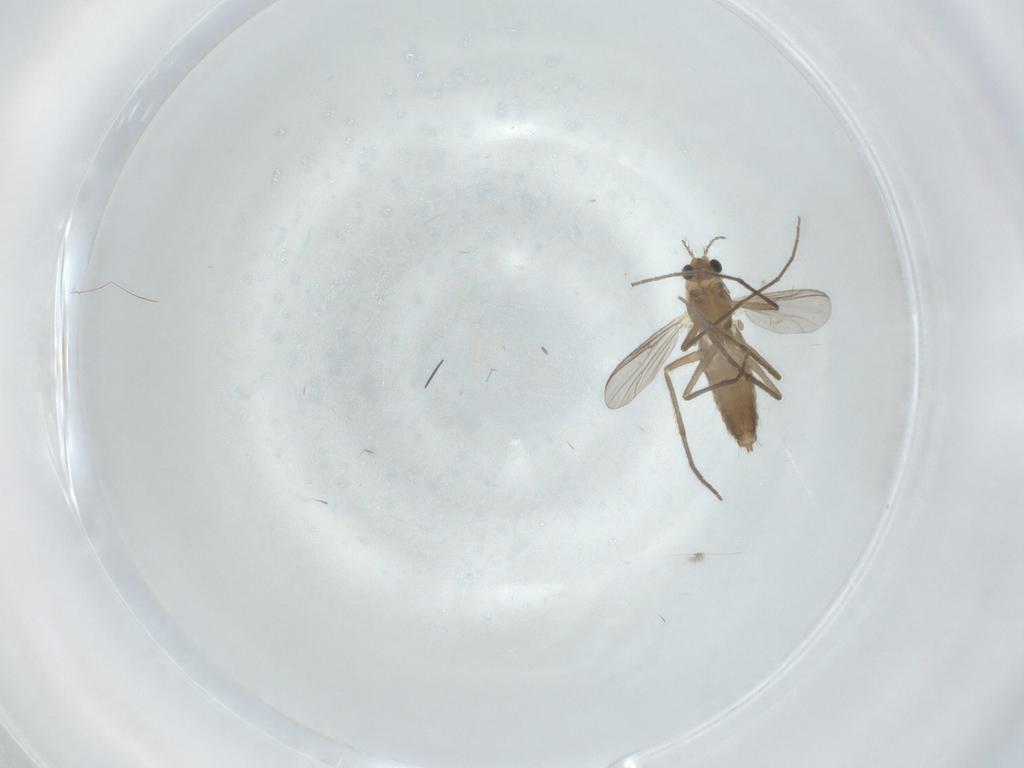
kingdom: Animalia
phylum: Arthropoda
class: Insecta
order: Diptera
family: Chironomidae
